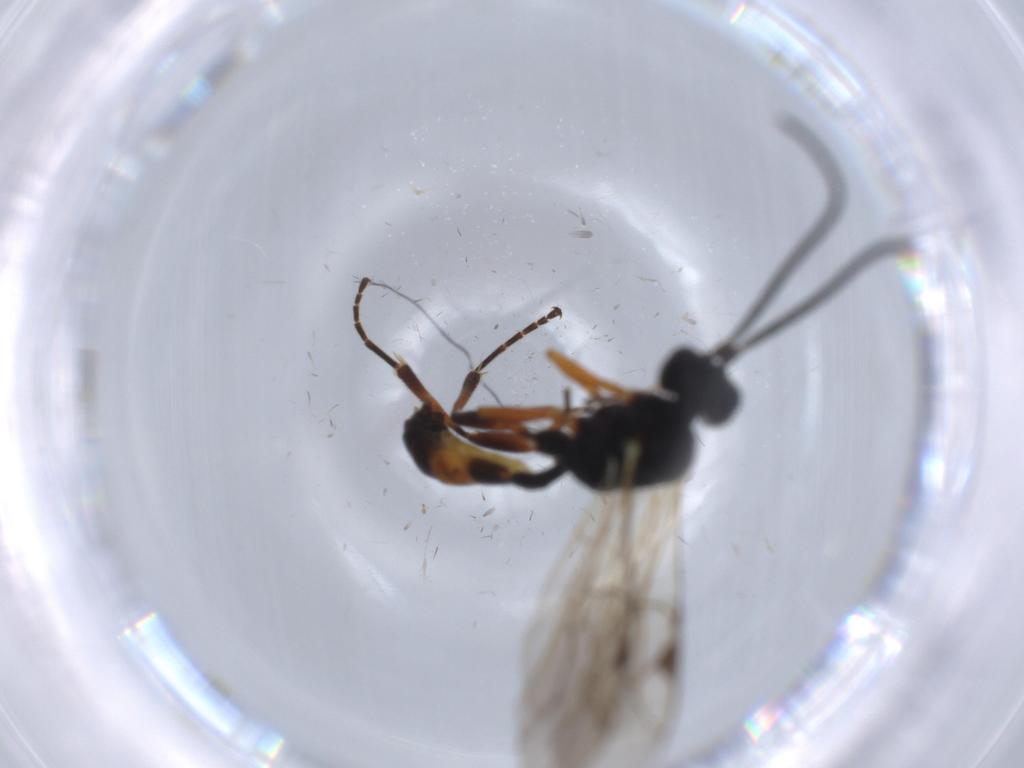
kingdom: Animalia
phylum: Arthropoda
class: Insecta
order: Hymenoptera
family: Ichneumonidae
